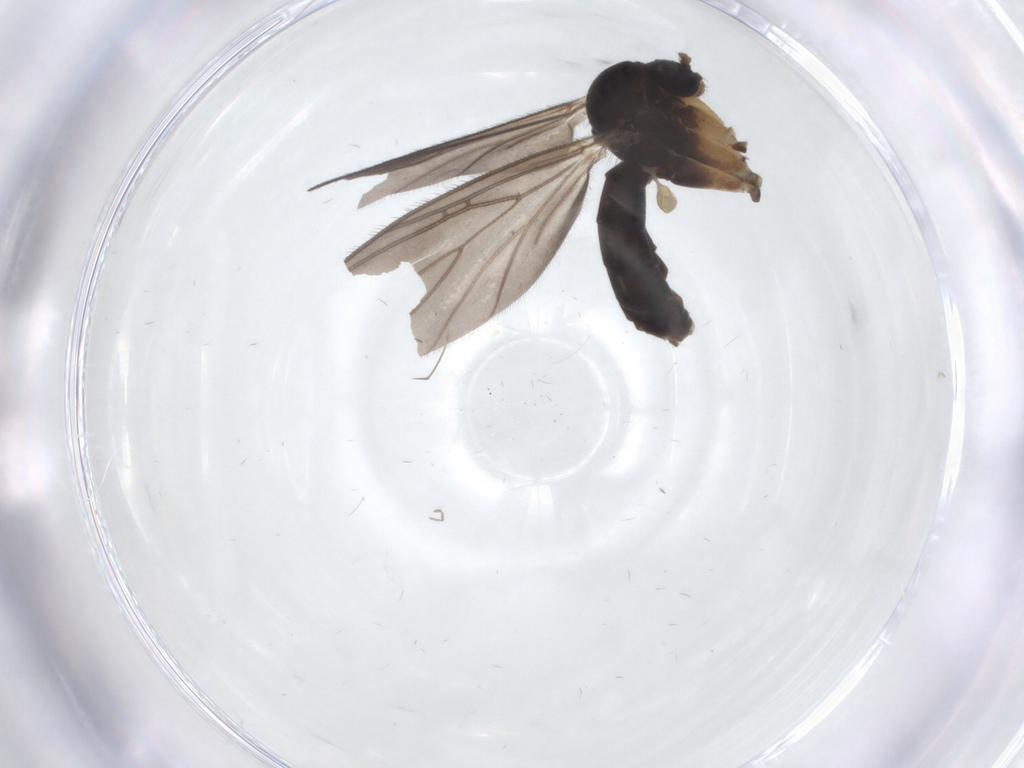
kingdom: Animalia
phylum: Arthropoda
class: Insecta
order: Diptera
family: Mycetophilidae
